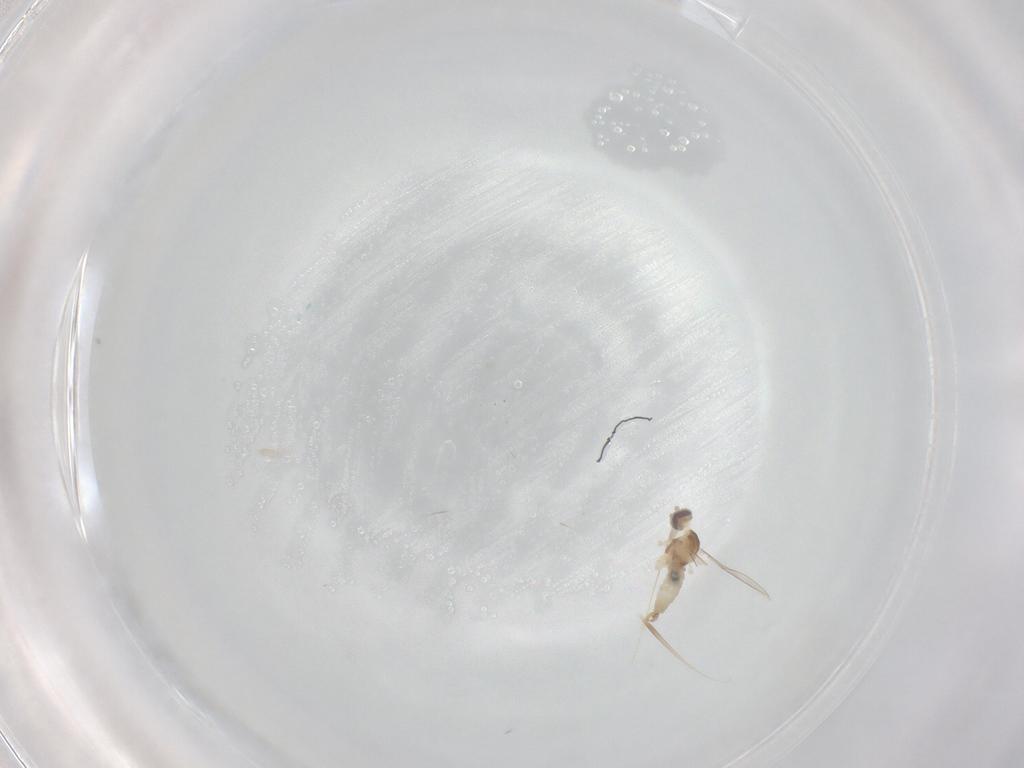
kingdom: Animalia
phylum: Arthropoda
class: Insecta
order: Diptera
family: Cecidomyiidae
